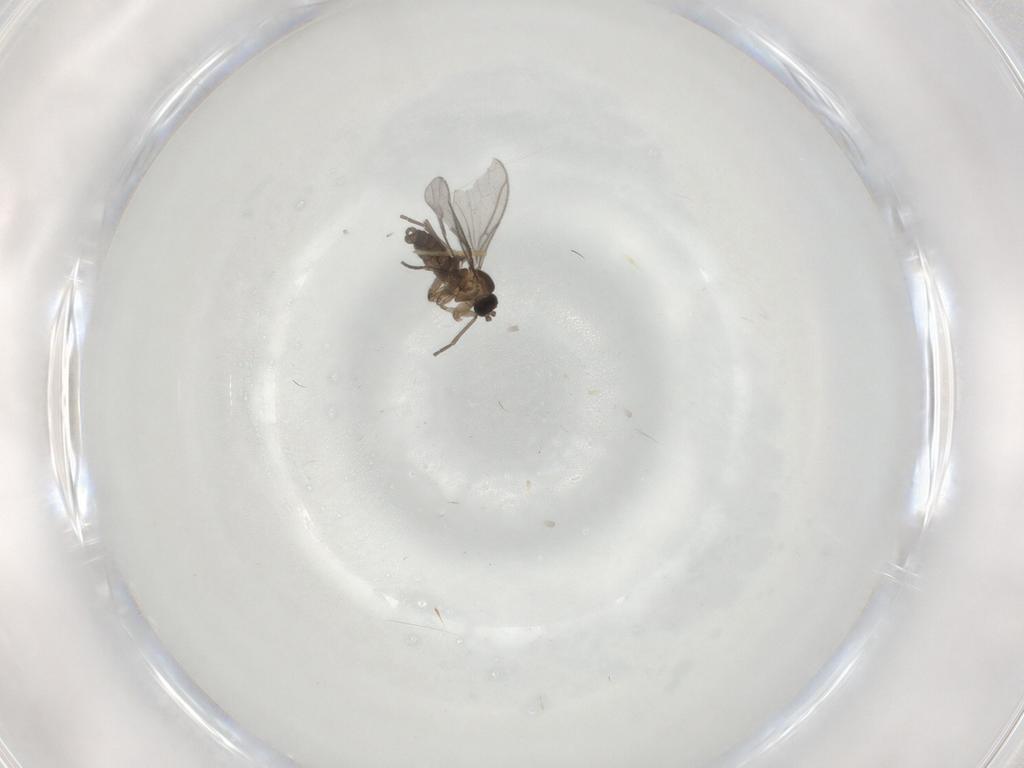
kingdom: Animalia
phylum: Arthropoda
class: Insecta
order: Diptera
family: Sciaridae
